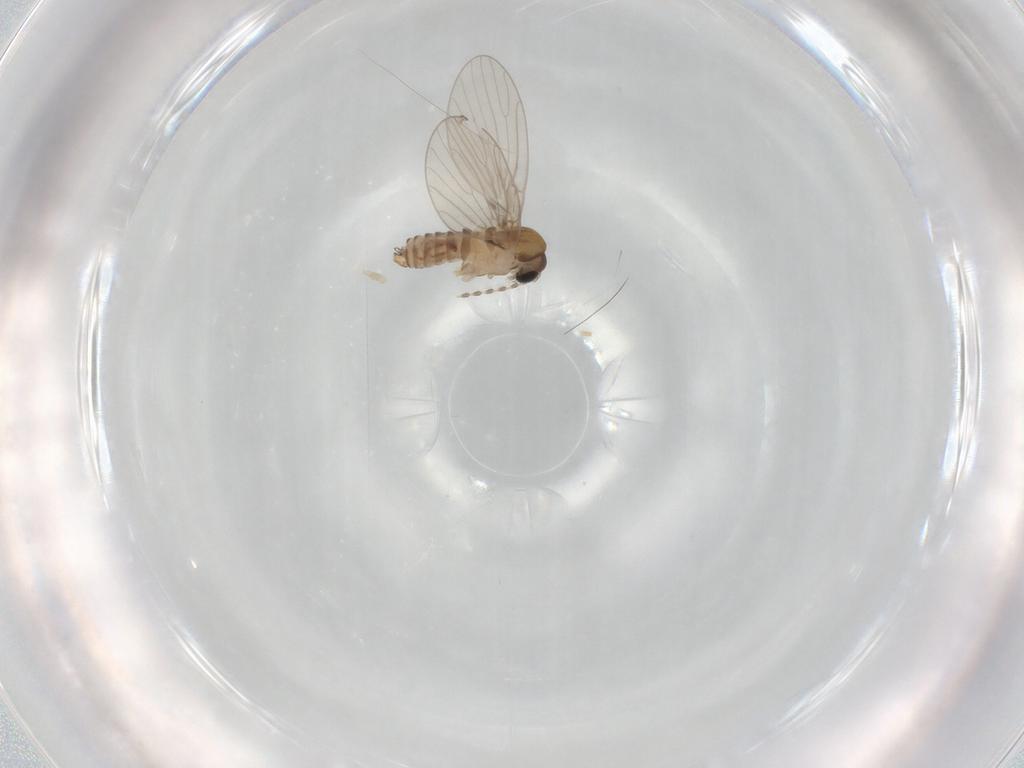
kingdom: Animalia
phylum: Arthropoda
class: Insecta
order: Diptera
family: Psychodidae
